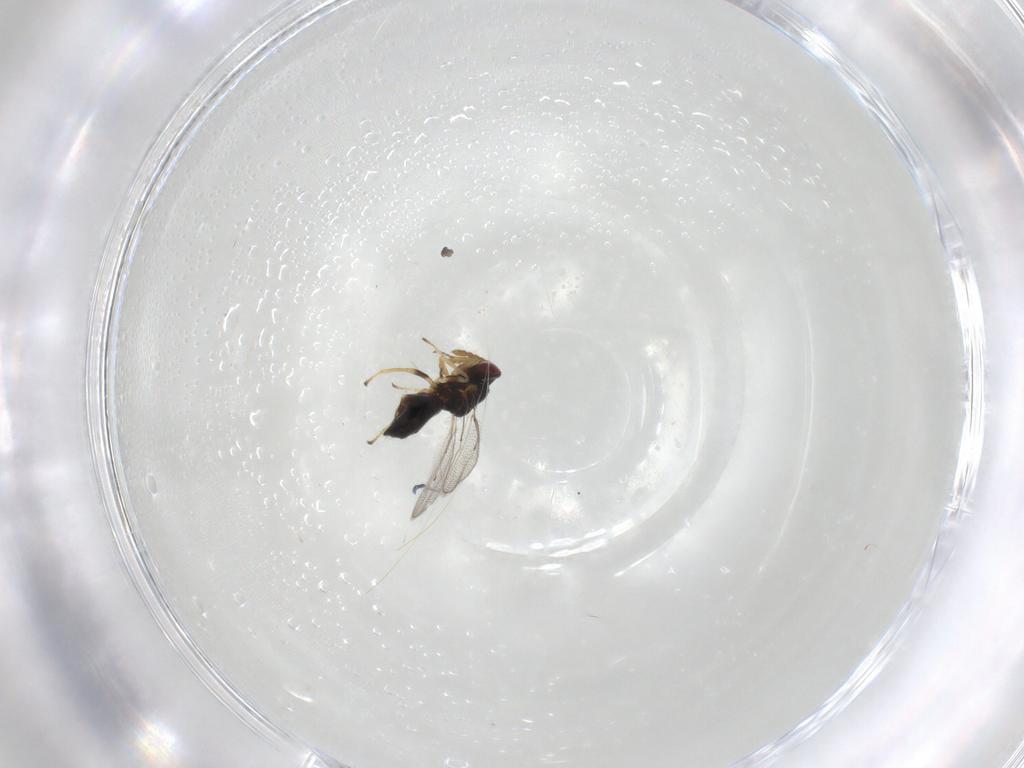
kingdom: Animalia
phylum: Arthropoda
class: Insecta
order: Hymenoptera
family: Eulophidae
